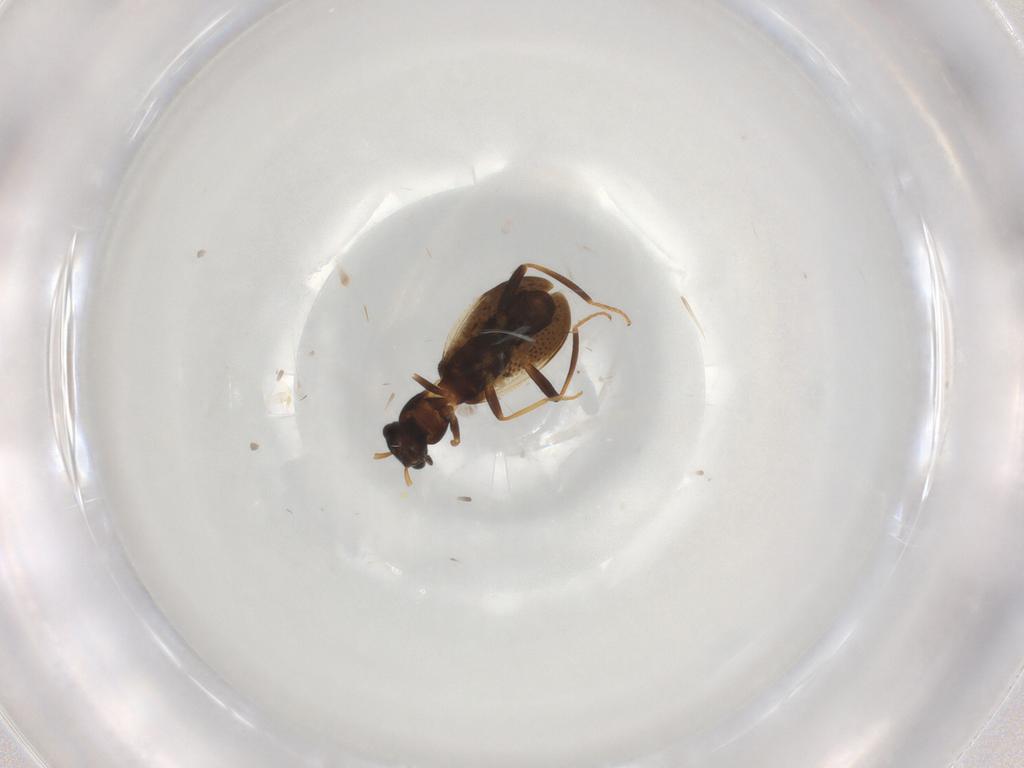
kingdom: Animalia
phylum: Arthropoda
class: Insecta
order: Coleoptera
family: Melyridae
